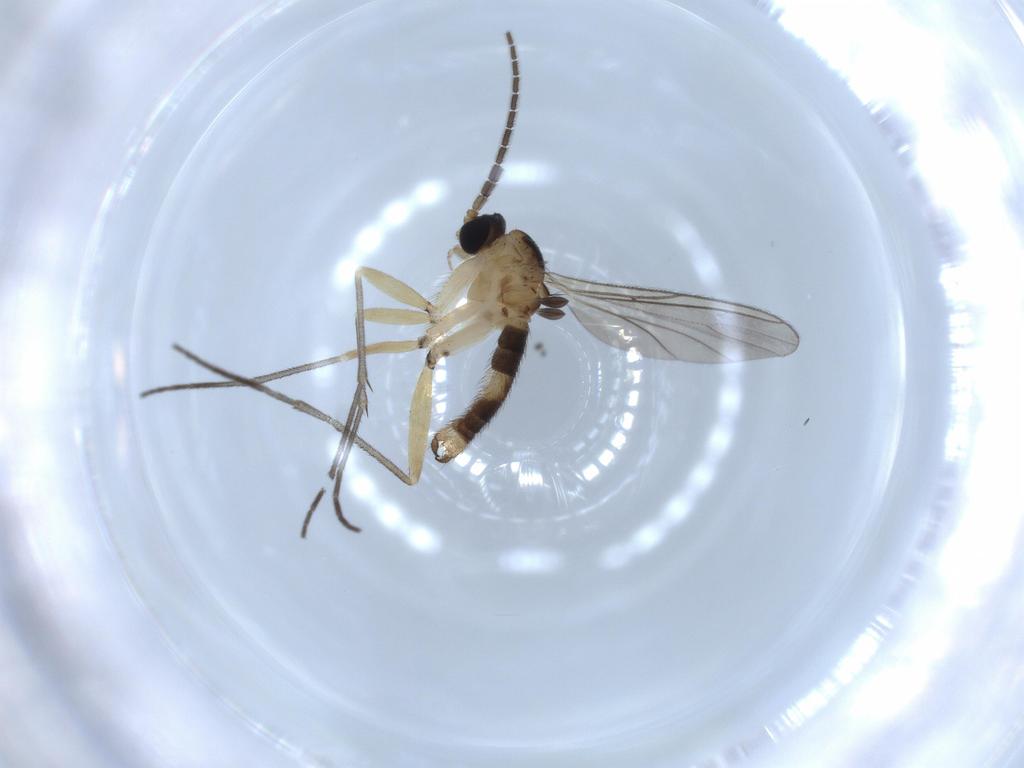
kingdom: Animalia
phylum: Arthropoda
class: Insecta
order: Diptera
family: Sciaridae
